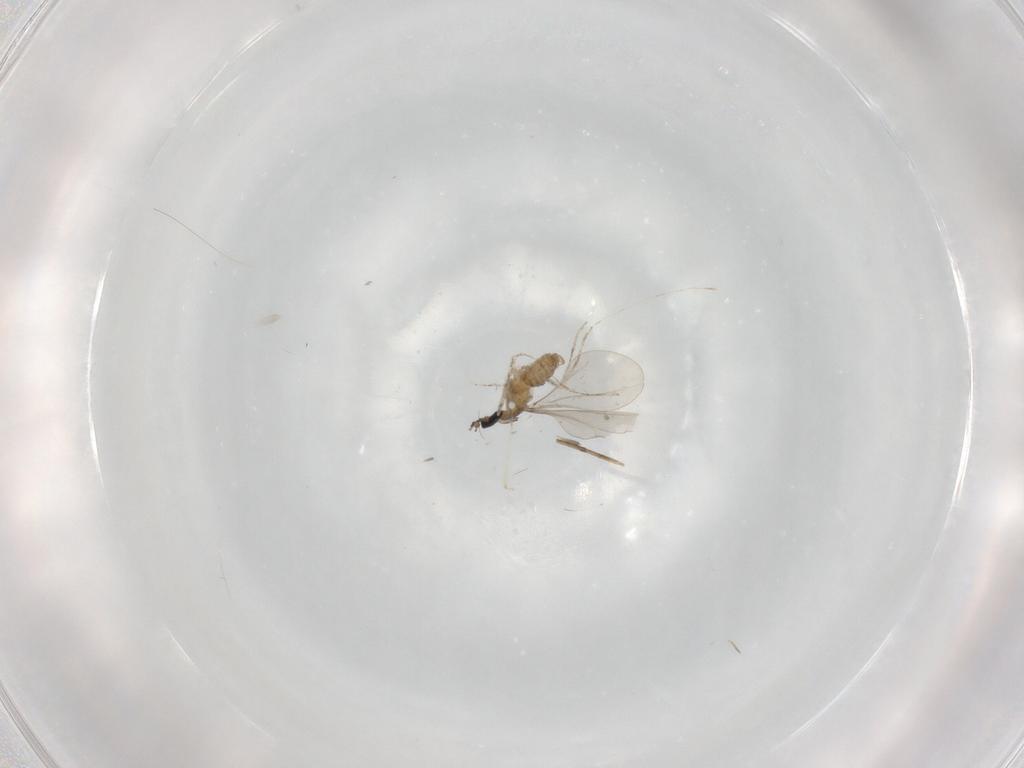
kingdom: Animalia
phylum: Arthropoda
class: Insecta
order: Diptera
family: Cecidomyiidae
